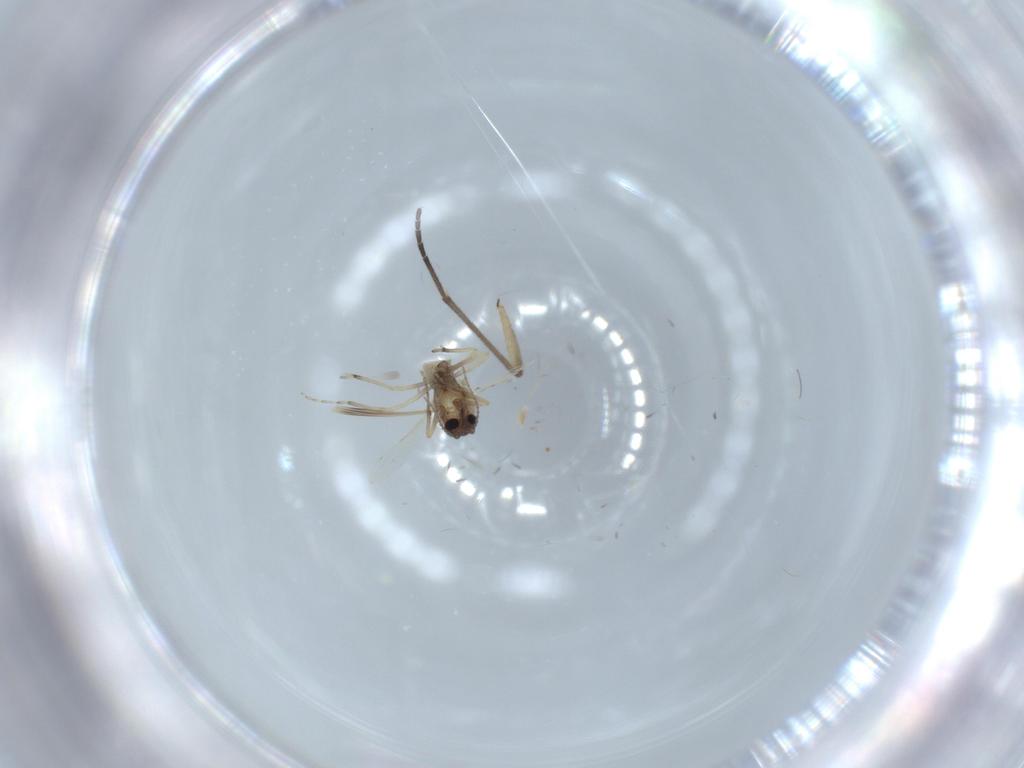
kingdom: Animalia
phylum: Arthropoda
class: Insecta
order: Diptera
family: Ceratopogonidae
